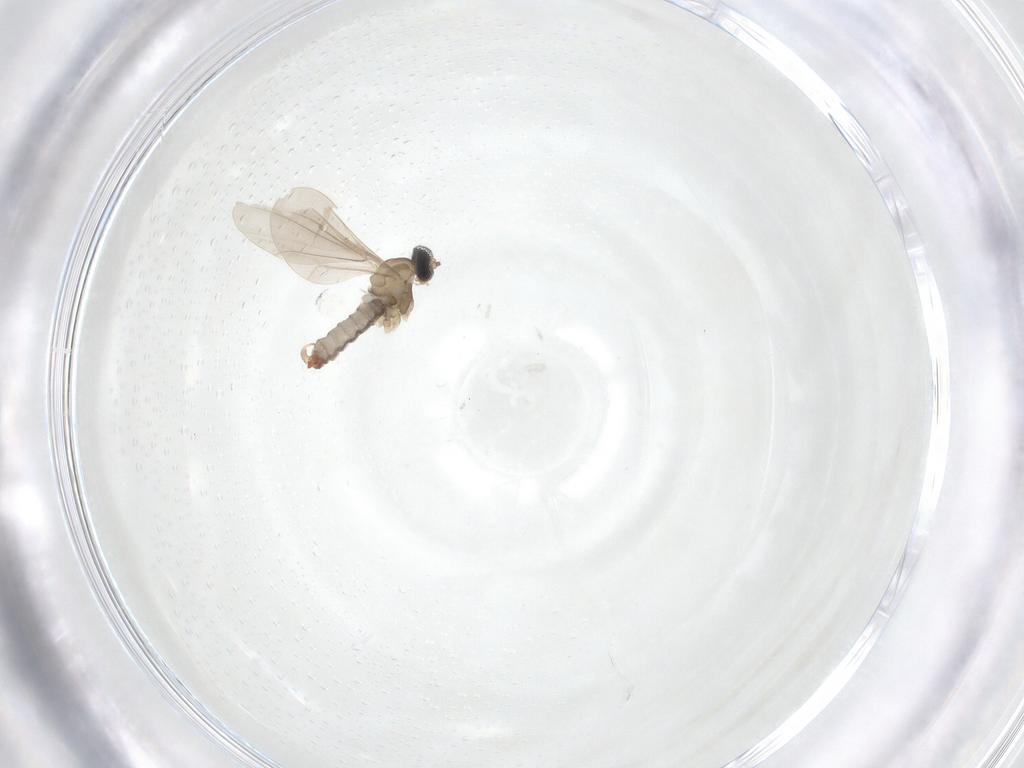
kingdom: Animalia
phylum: Arthropoda
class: Insecta
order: Diptera
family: Cecidomyiidae
